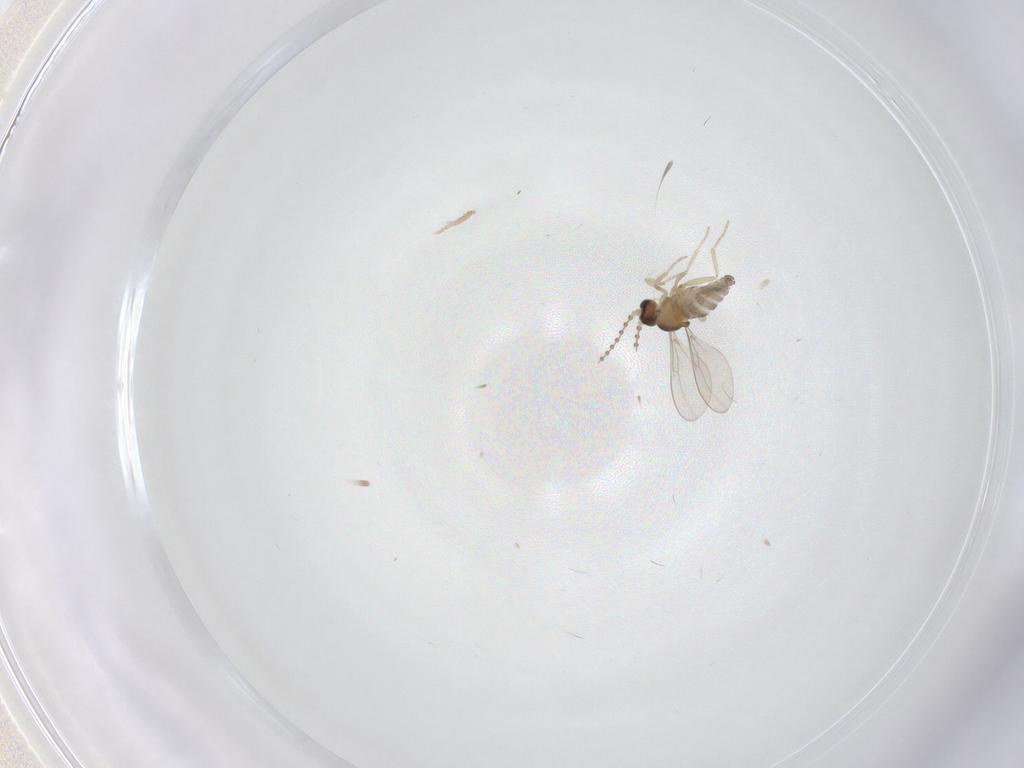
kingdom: Animalia
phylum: Arthropoda
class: Insecta
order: Diptera
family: Cecidomyiidae
